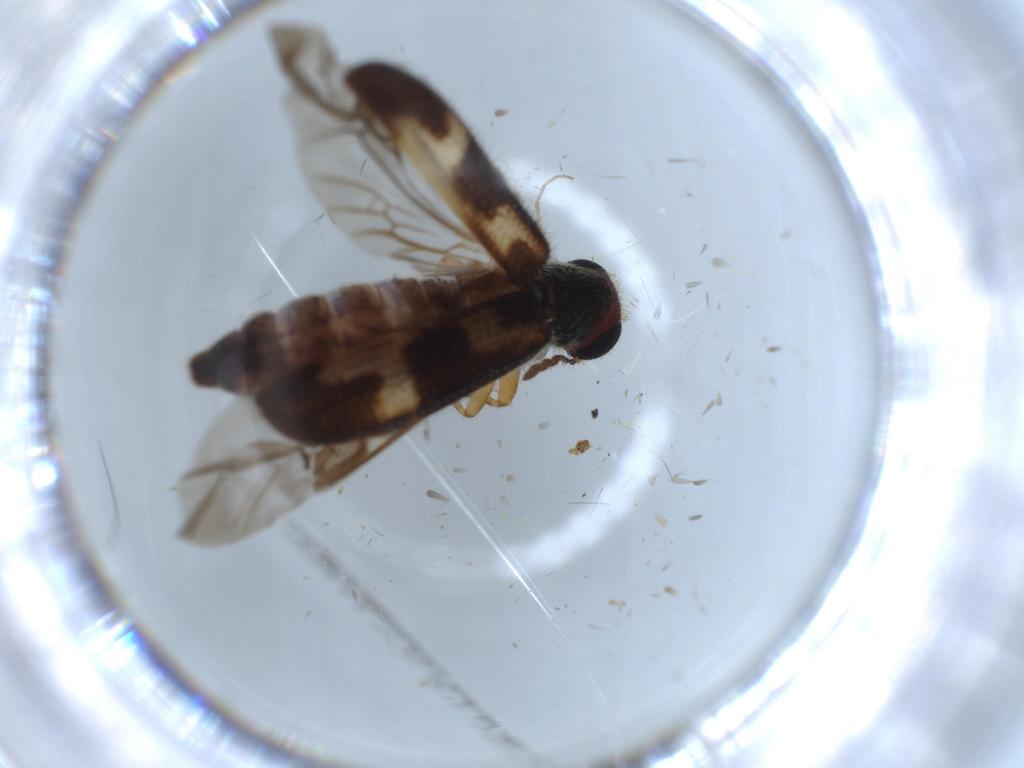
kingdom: Animalia
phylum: Arthropoda
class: Insecta
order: Coleoptera
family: Cleridae
